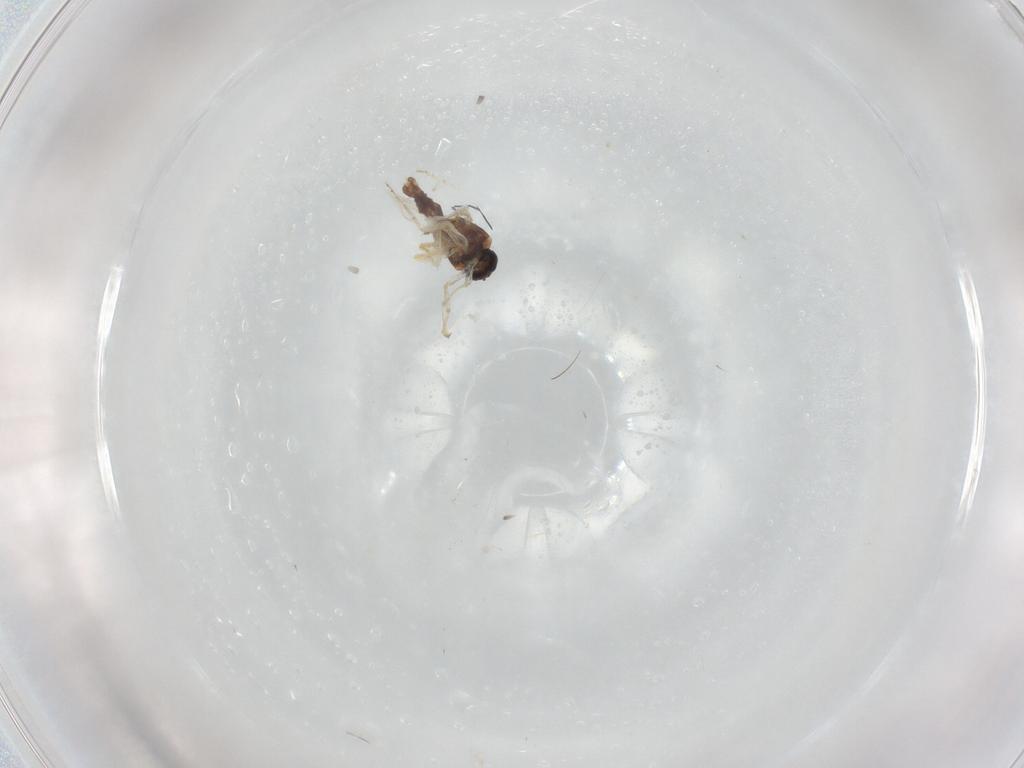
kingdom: Animalia
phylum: Arthropoda
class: Insecta
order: Diptera
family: Ceratopogonidae
